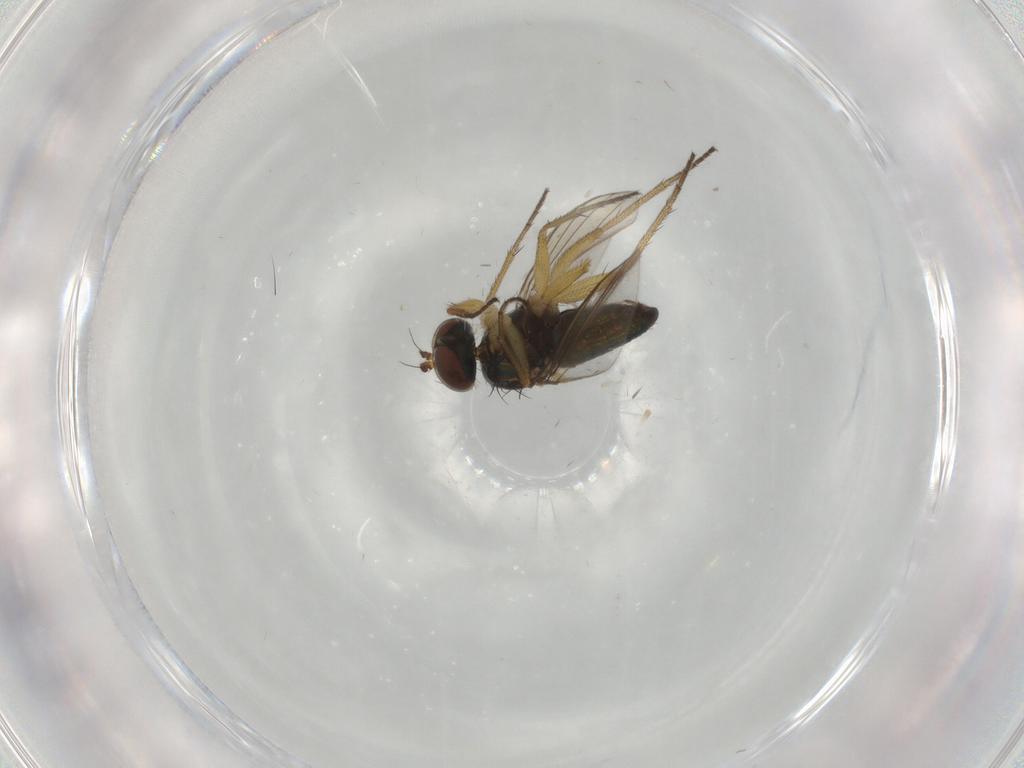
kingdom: Animalia
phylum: Arthropoda
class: Insecta
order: Diptera
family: Dolichopodidae
